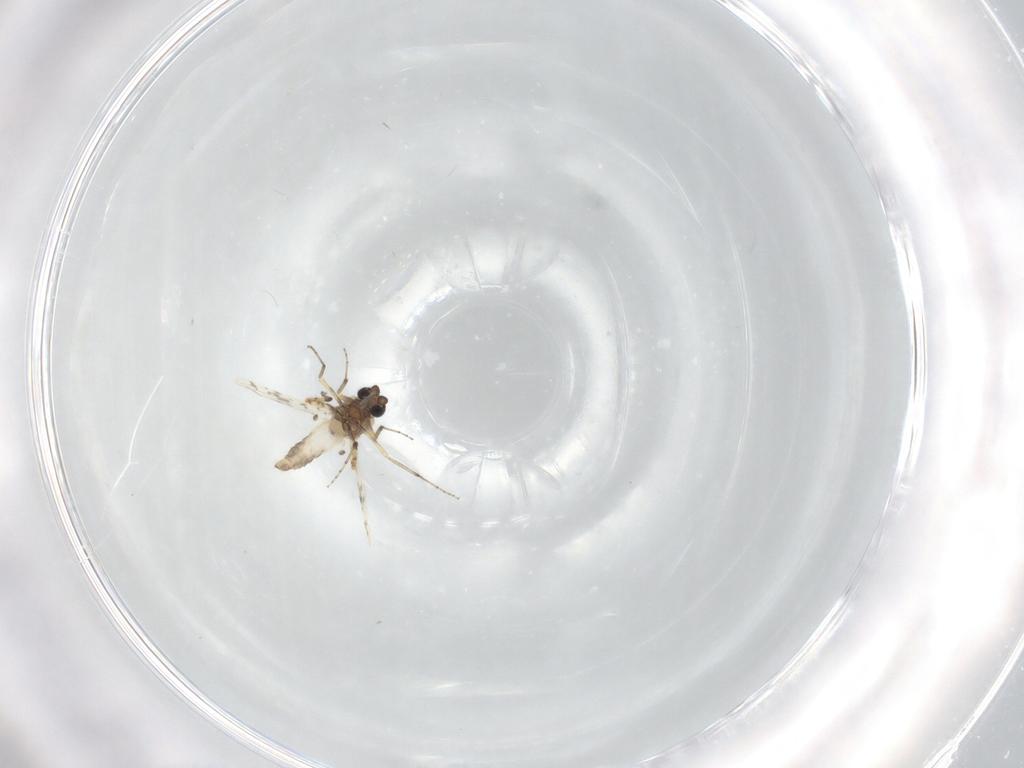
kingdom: Animalia
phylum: Arthropoda
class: Insecta
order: Diptera
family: Ceratopogonidae
